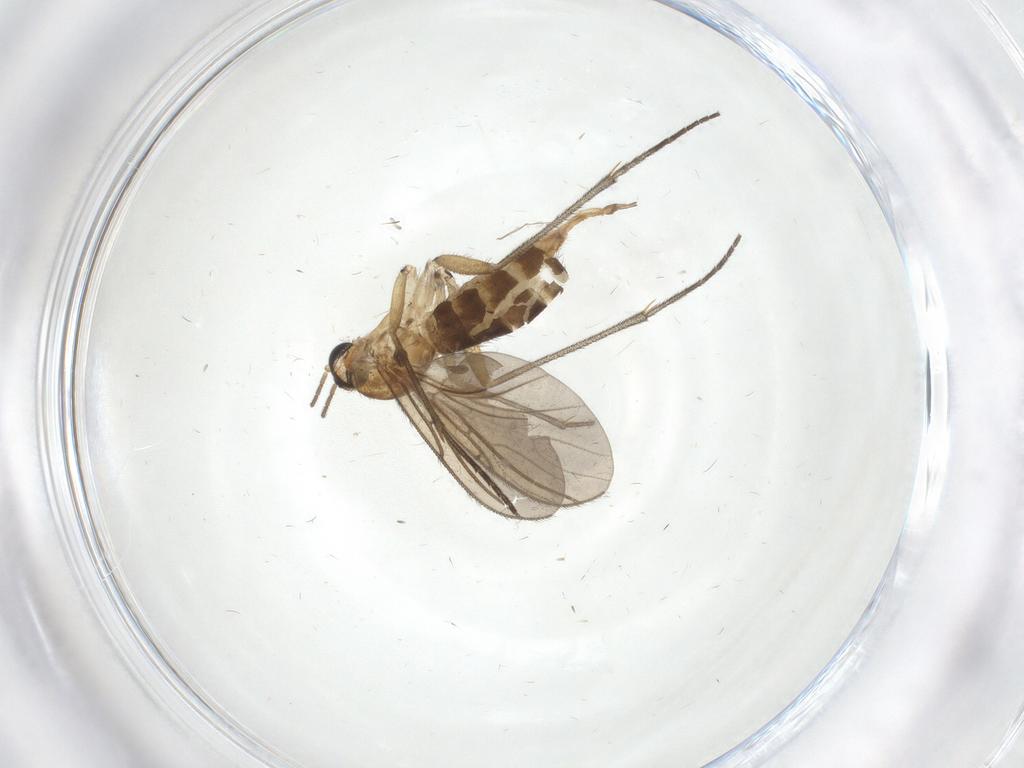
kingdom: Animalia
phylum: Arthropoda
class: Insecta
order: Diptera
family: Sciaridae
